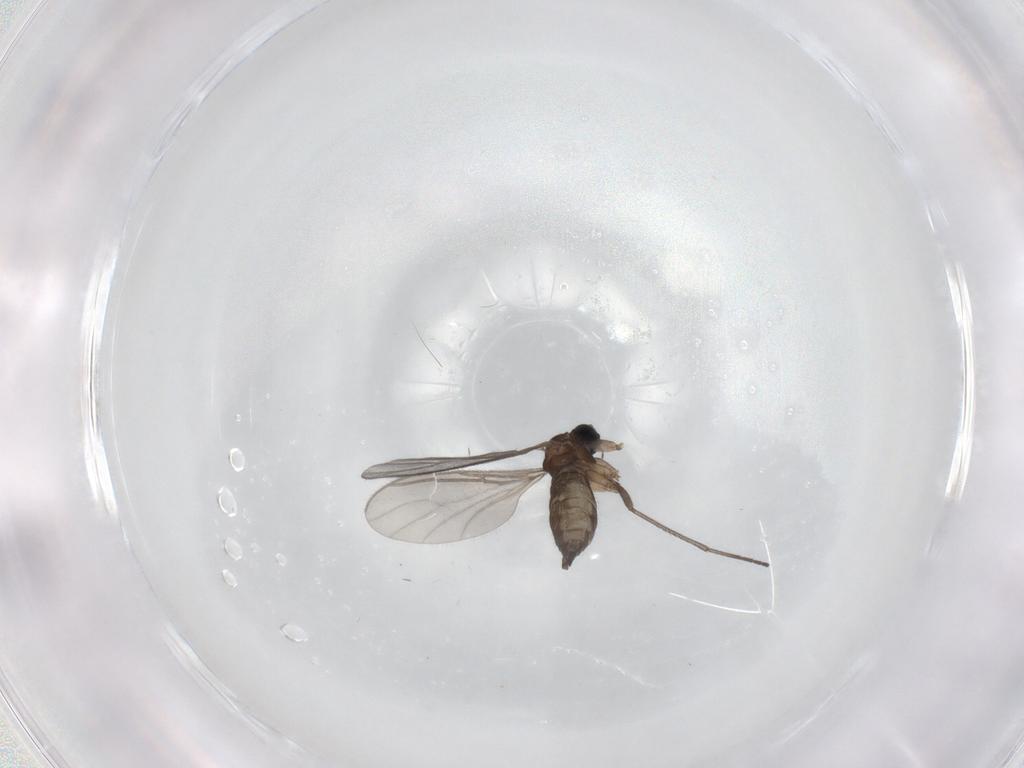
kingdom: Animalia
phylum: Arthropoda
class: Insecta
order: Diptera
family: Sciaridae
